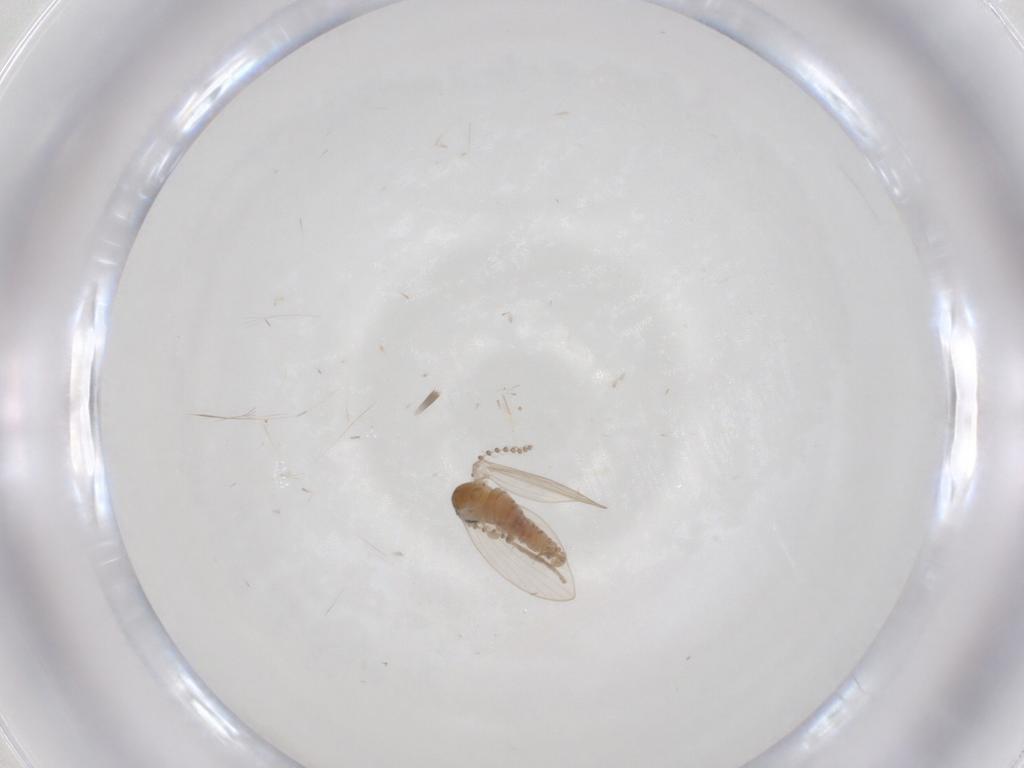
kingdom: Animalia
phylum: Arthropoda
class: Insecta
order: Diptera
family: Psychodidae
